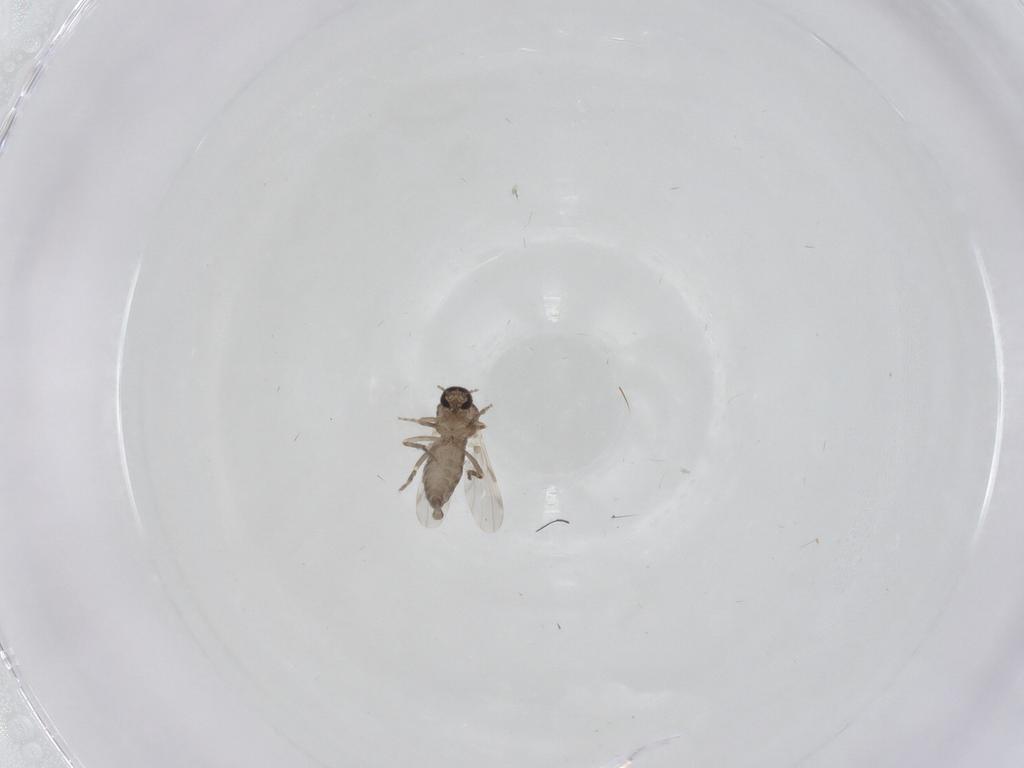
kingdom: Animalia
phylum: Arthropoda
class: Insecta
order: Diptera
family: Ceratopogonidae
